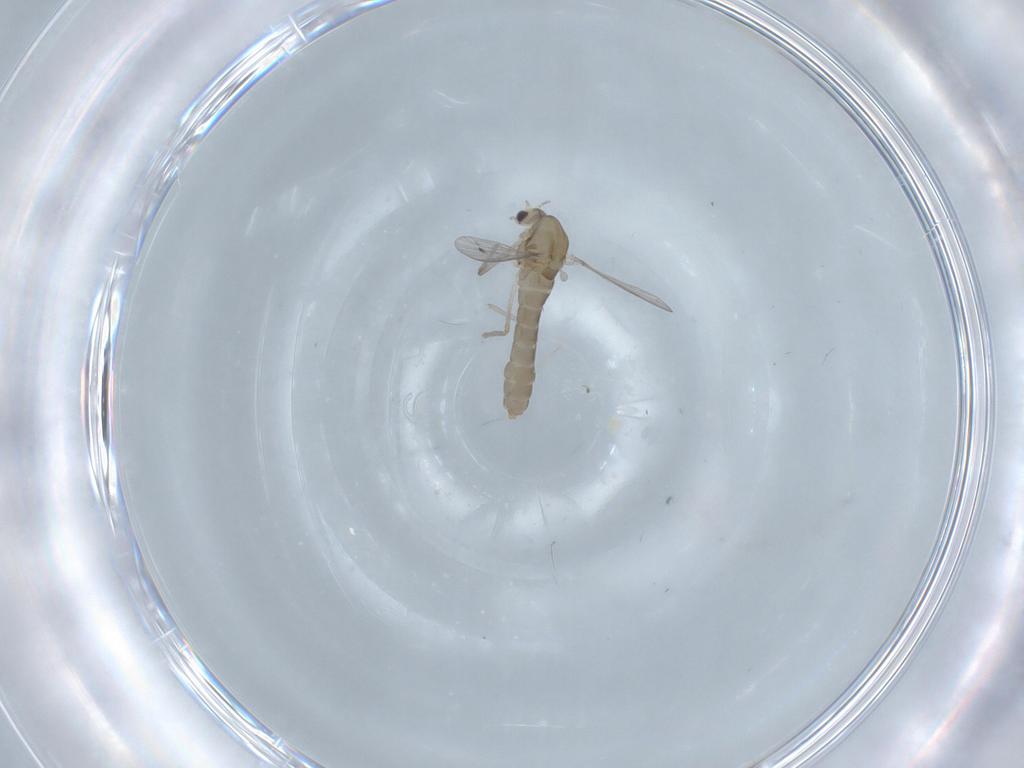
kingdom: Animalia
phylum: Arthropoda
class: Insecta
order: Diptera
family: Chironomidae
